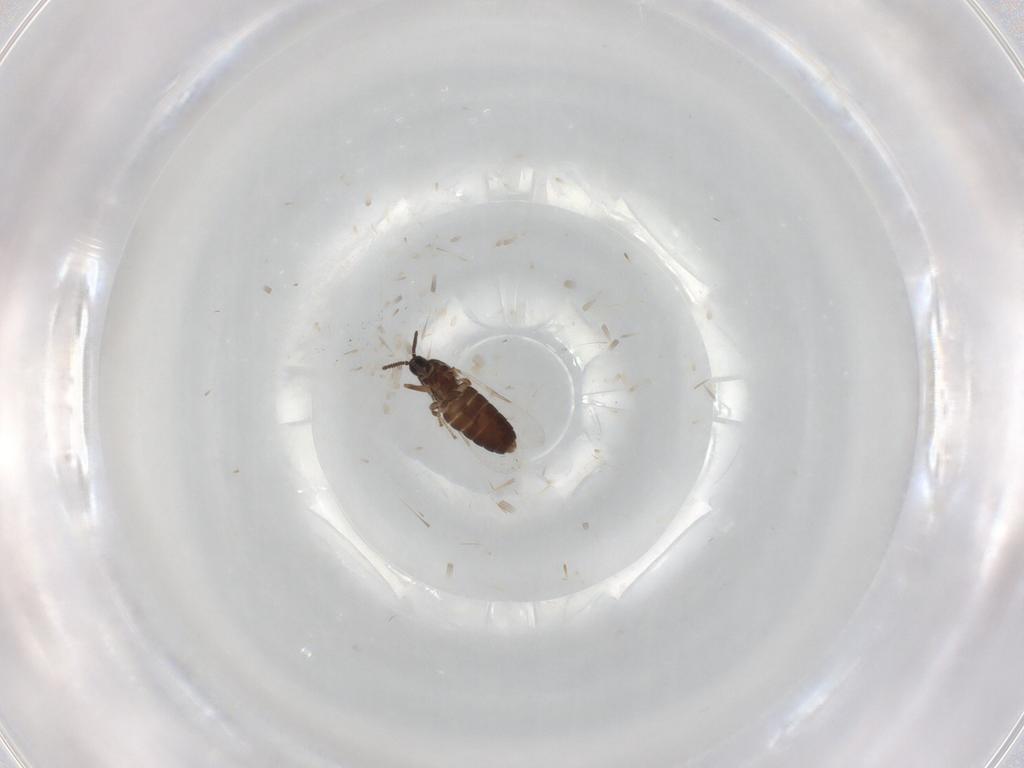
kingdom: Animalia
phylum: Arthropoda
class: Insecta
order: Diptera
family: Scatopsidae
